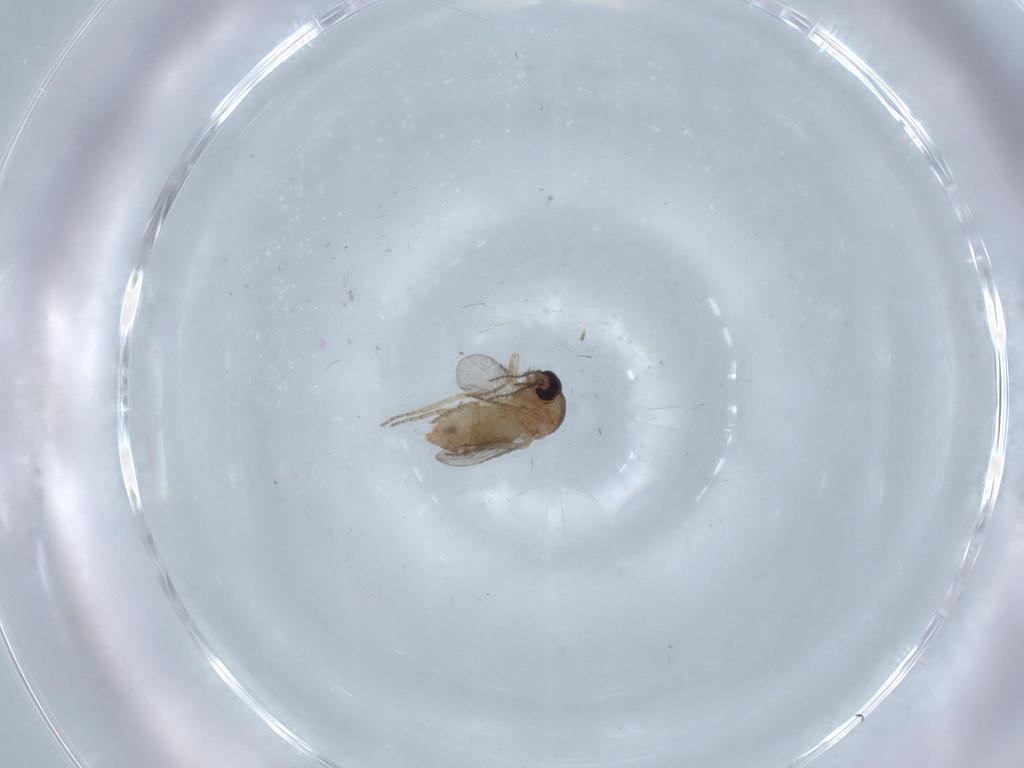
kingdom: Animalia
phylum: Arthropoda
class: Insecta
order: Diptera
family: Chironomidae
